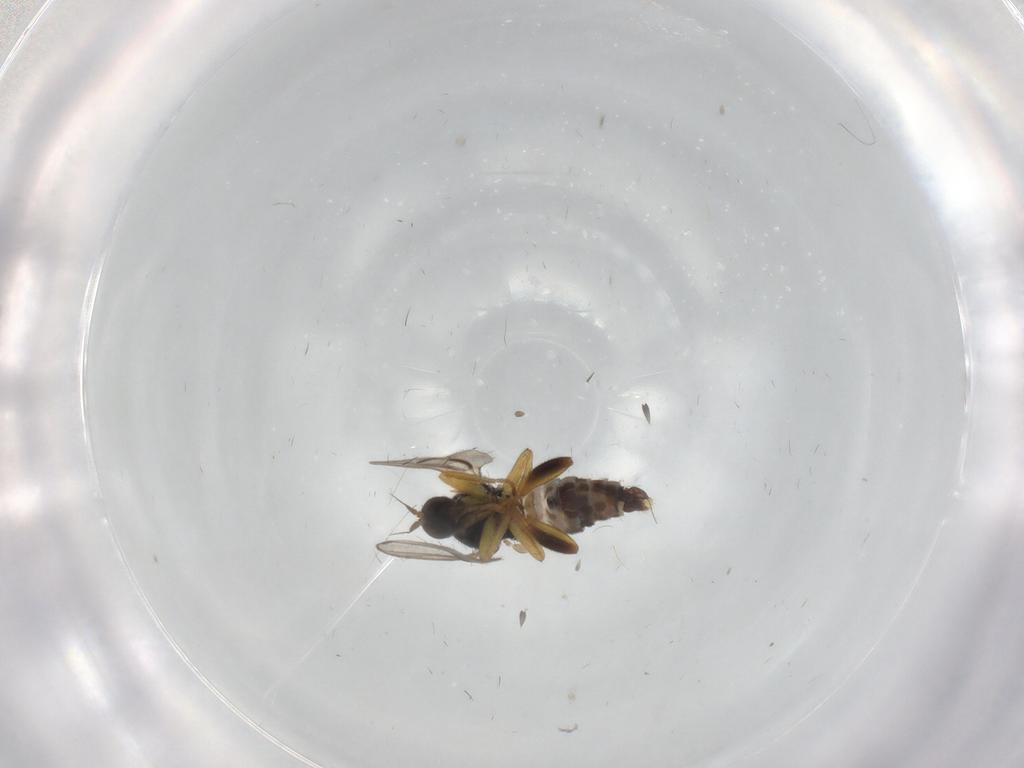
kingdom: Animalia
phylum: Arthropoda
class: Insecta
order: Diptera
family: Hybotidae
